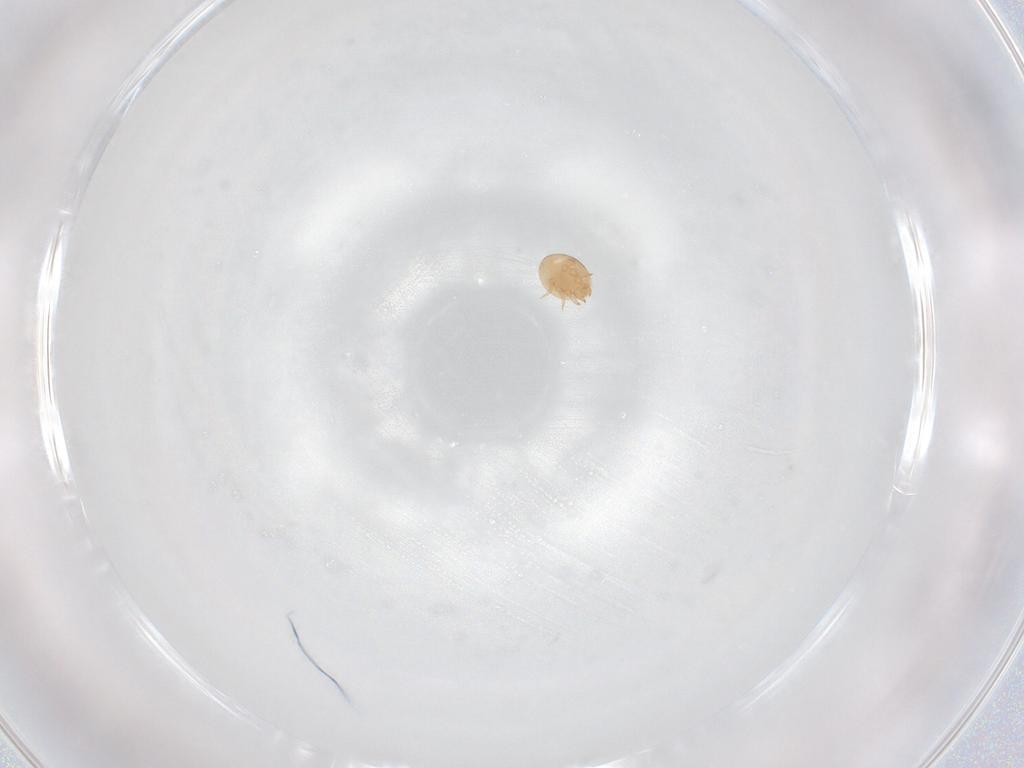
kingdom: Animalia
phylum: Arthropoda
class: Arachnida
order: Mesostigmata
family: Trematuridae
